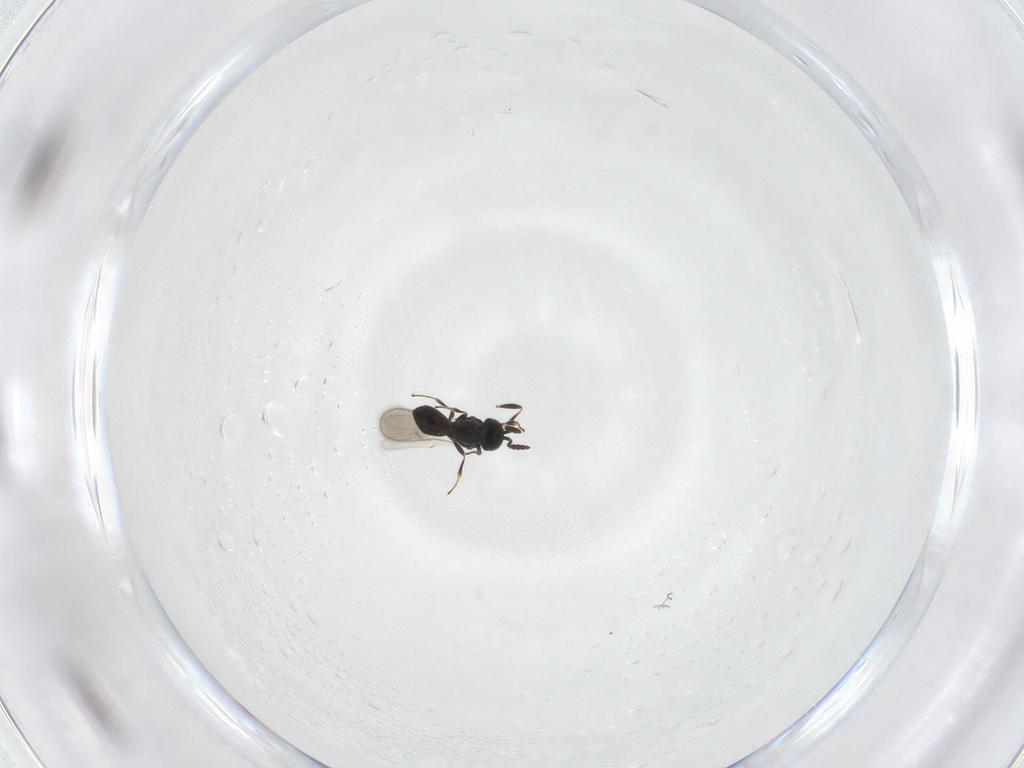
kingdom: Animalia
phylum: Arthropoda
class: Insecta
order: Hymenoptera
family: Scelionidae
